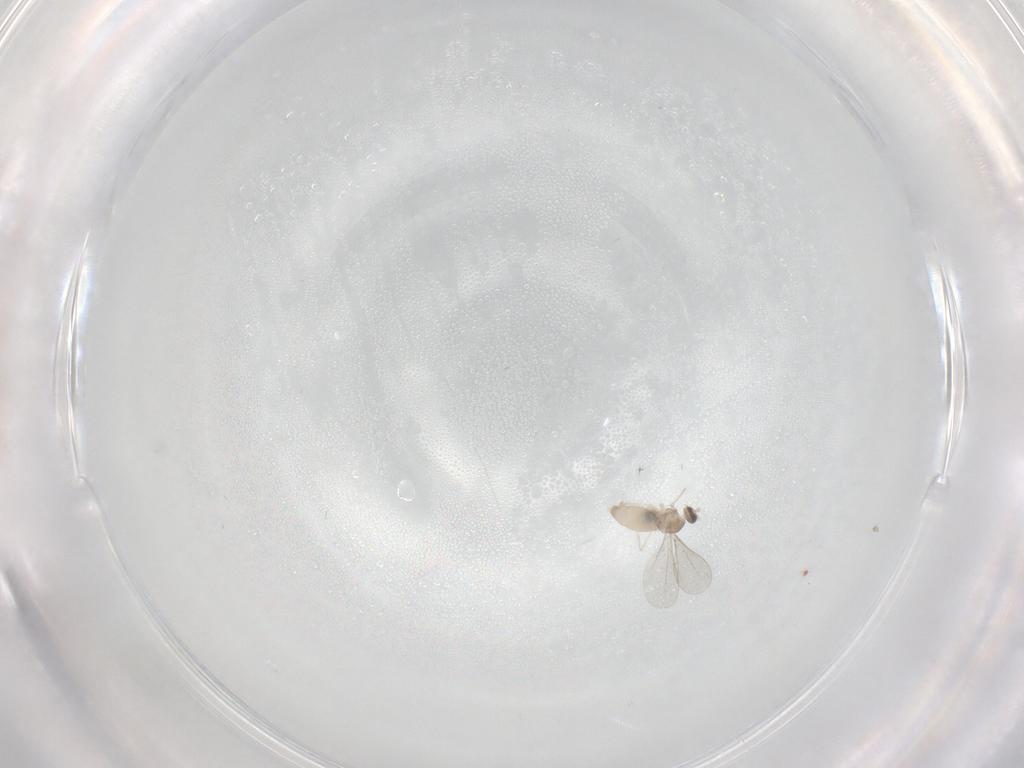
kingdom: Animalia
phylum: Arthropoda
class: Insecta
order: Diptera
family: Cecidomyiidae
